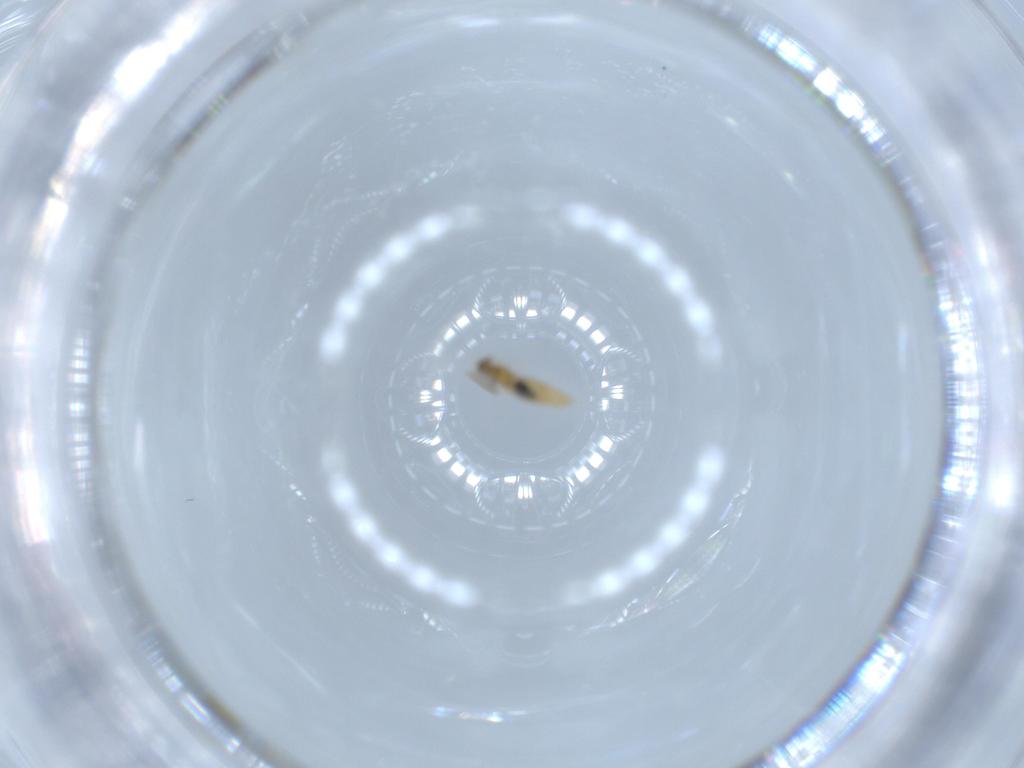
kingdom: Animalia
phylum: Arthropoda
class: Insecta
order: Diptera
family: Cecidomyiidae
